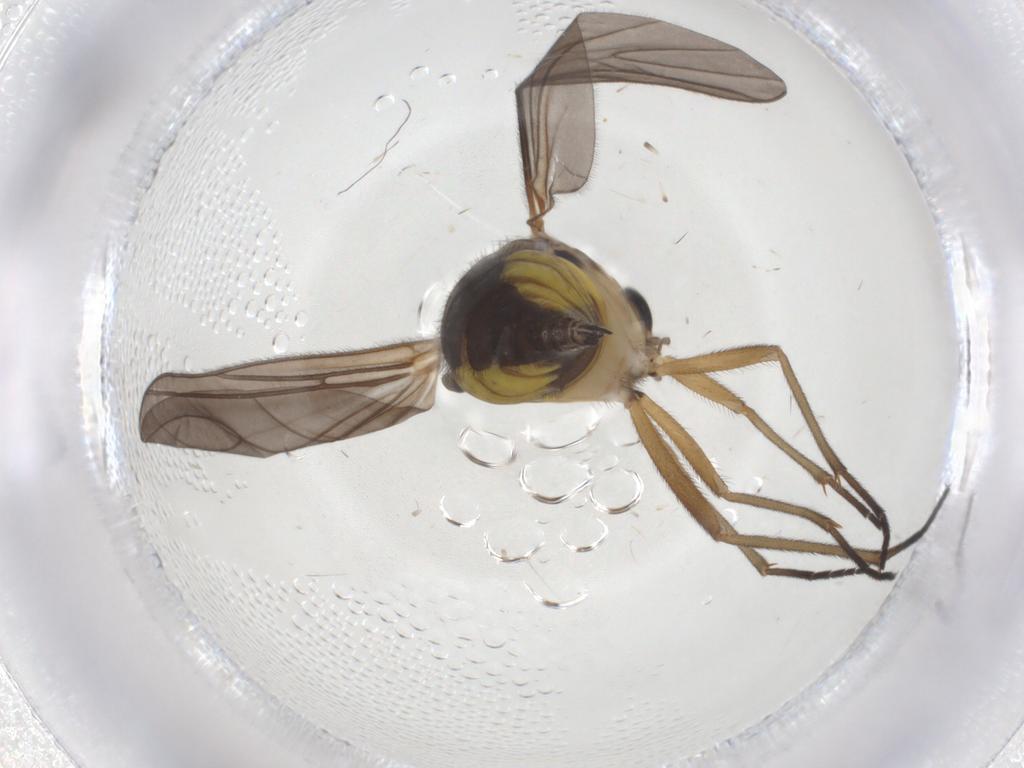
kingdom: Animalia
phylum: Arthropoda
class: Insecta
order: Diptera
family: Sciaridae
